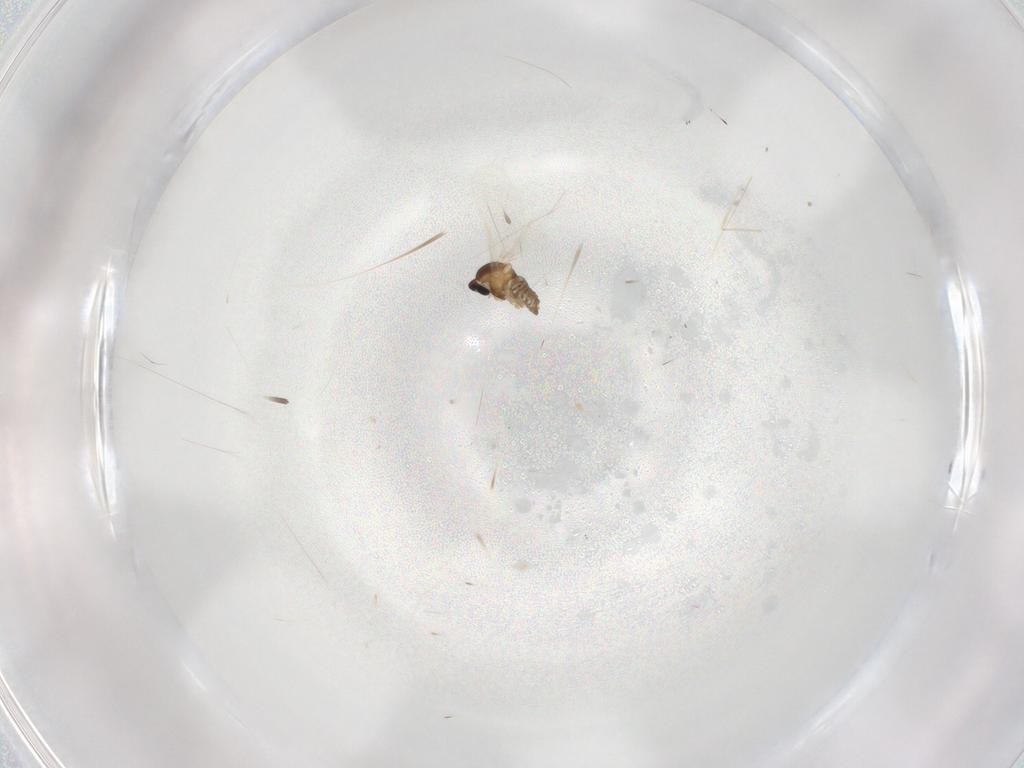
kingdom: Animalia
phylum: Arthropoda
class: Insecta
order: Diptera
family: Cecidomyiidae
